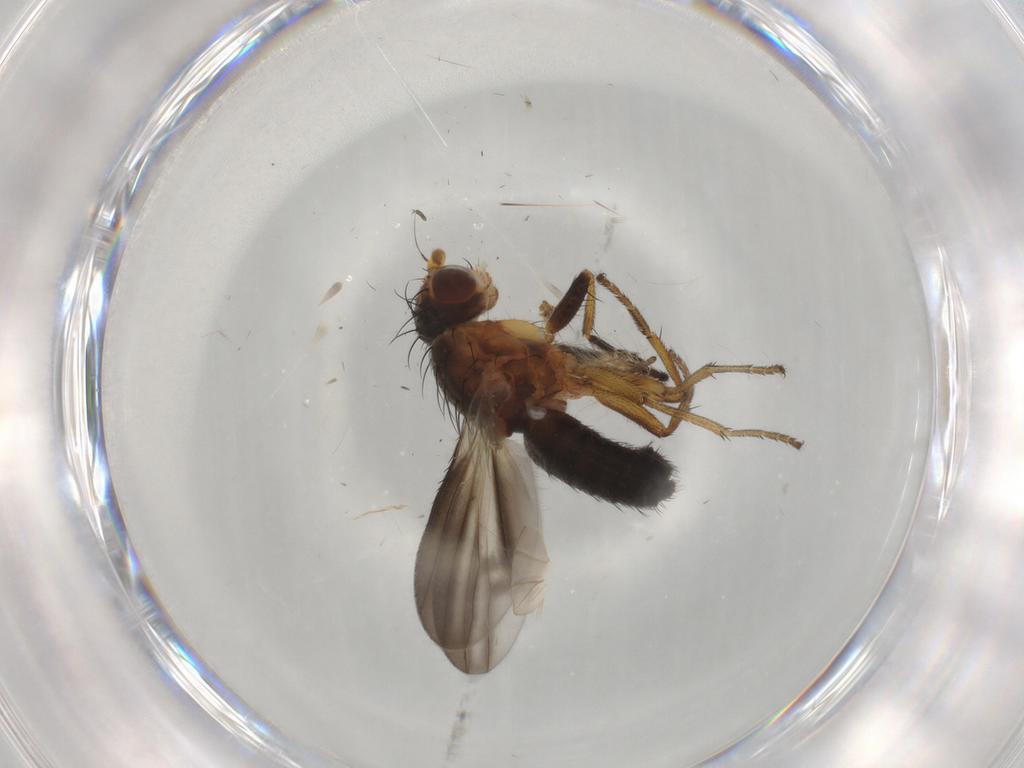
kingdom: Animalia
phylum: Arthropoda
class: Insecta
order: Diptera
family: Heleomyzidae
